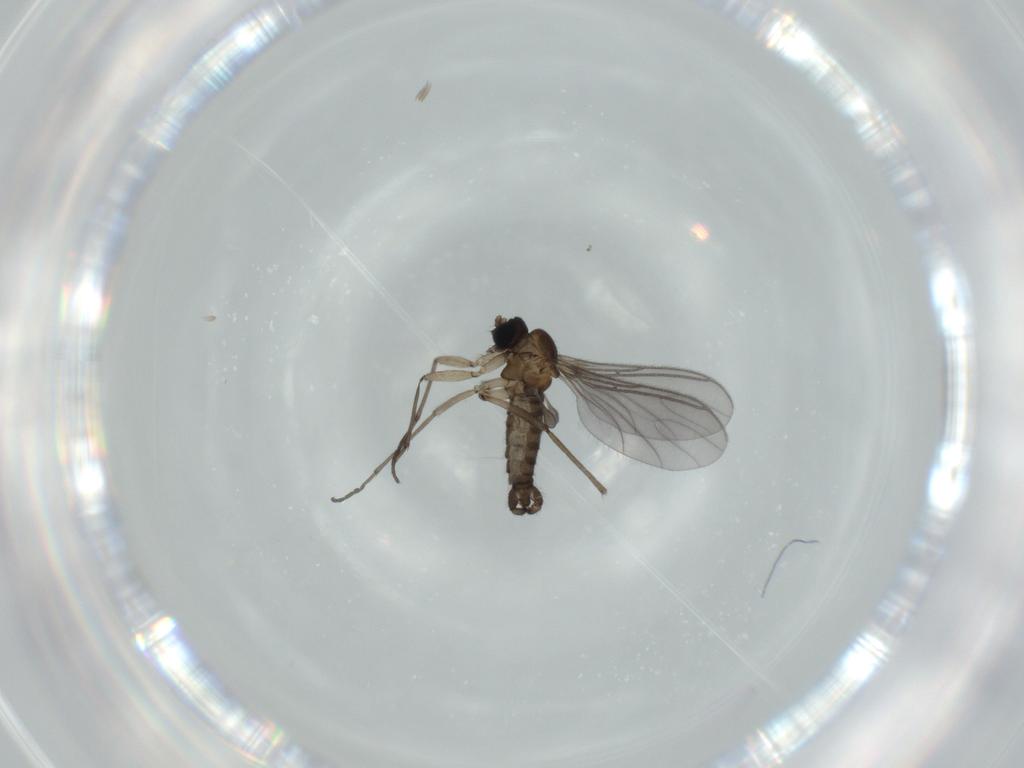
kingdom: Animalia
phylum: Arthropoda
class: Insecta
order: Diptera
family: Sciaridae
